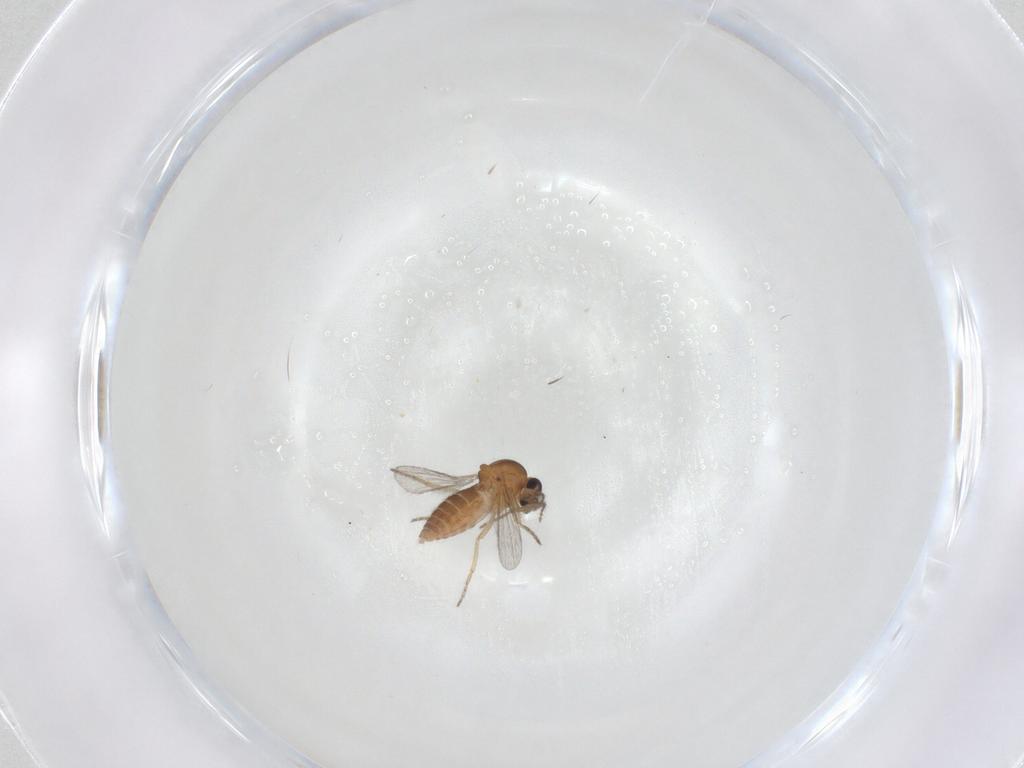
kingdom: Animalia
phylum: Arthropoda
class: Insecta
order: Diptera
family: Ceratopogonidae
